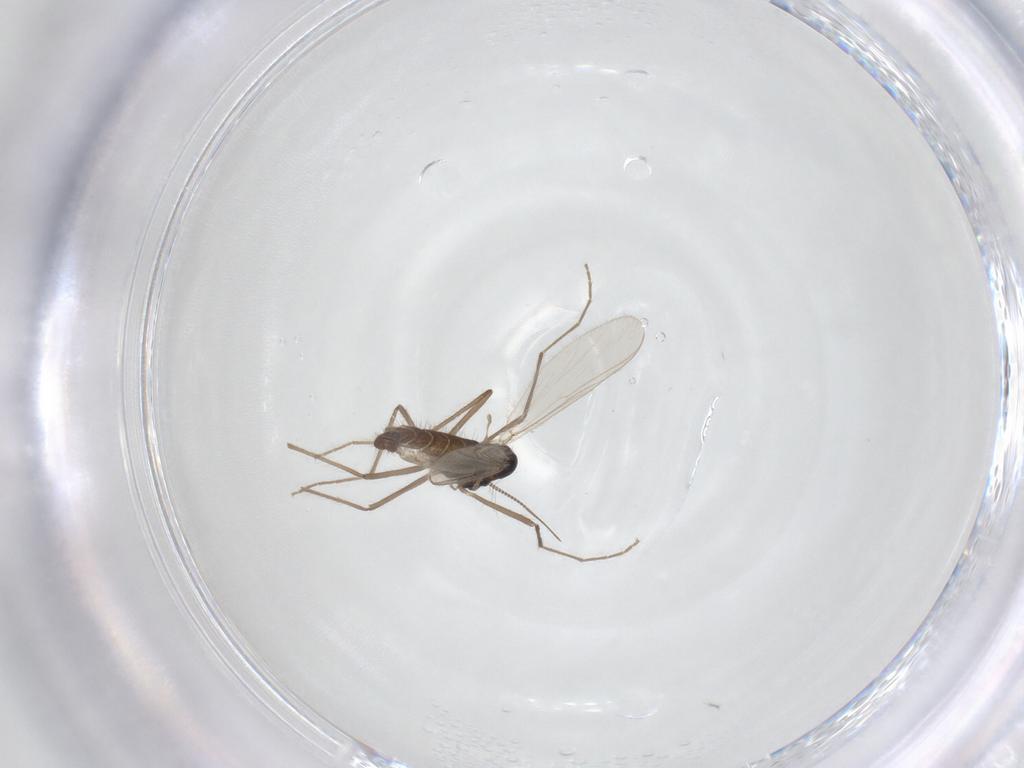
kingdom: Animalia
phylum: Arthropoda
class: Insecta
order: Diptera
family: Chironomidae
